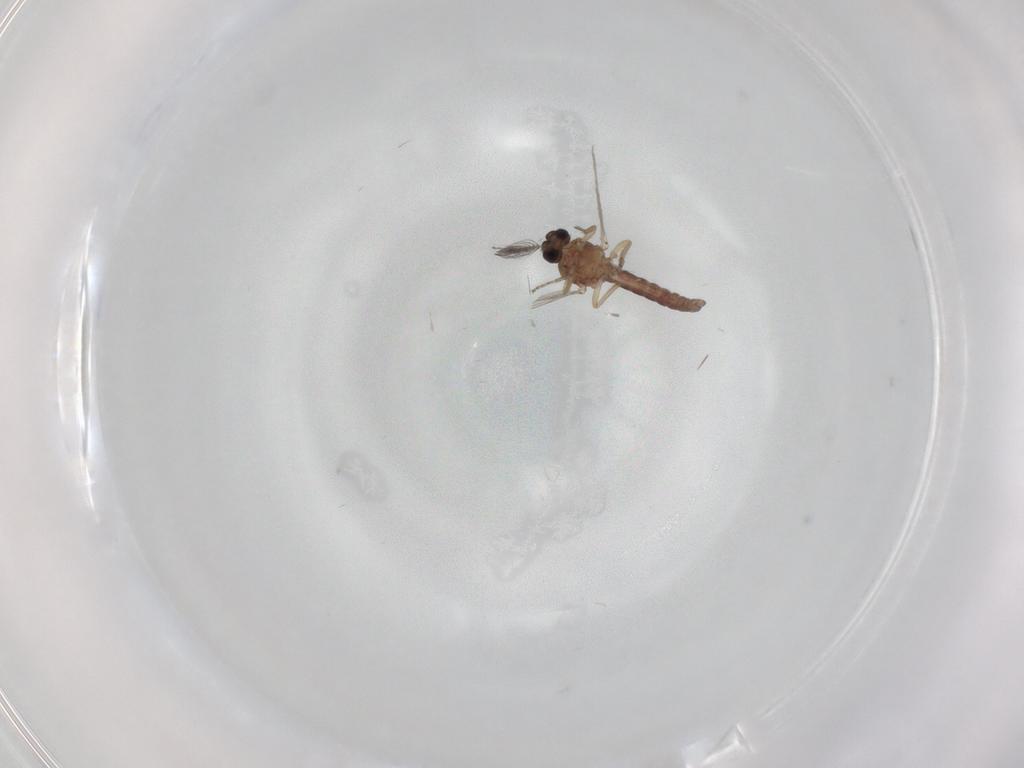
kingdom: Animalia
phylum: Arthropoda
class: Insecta
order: Diptera
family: Ceratopogonidae
